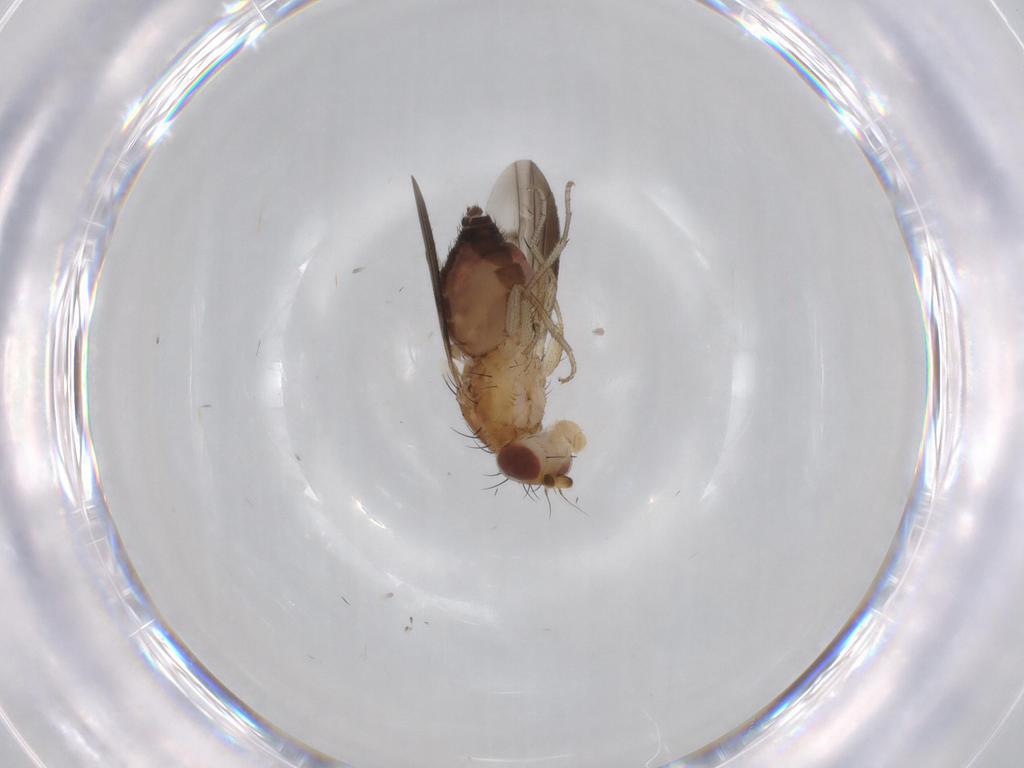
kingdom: Animalia
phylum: Arthropoda
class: Insecta
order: Diptera
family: Heleomyzidae
